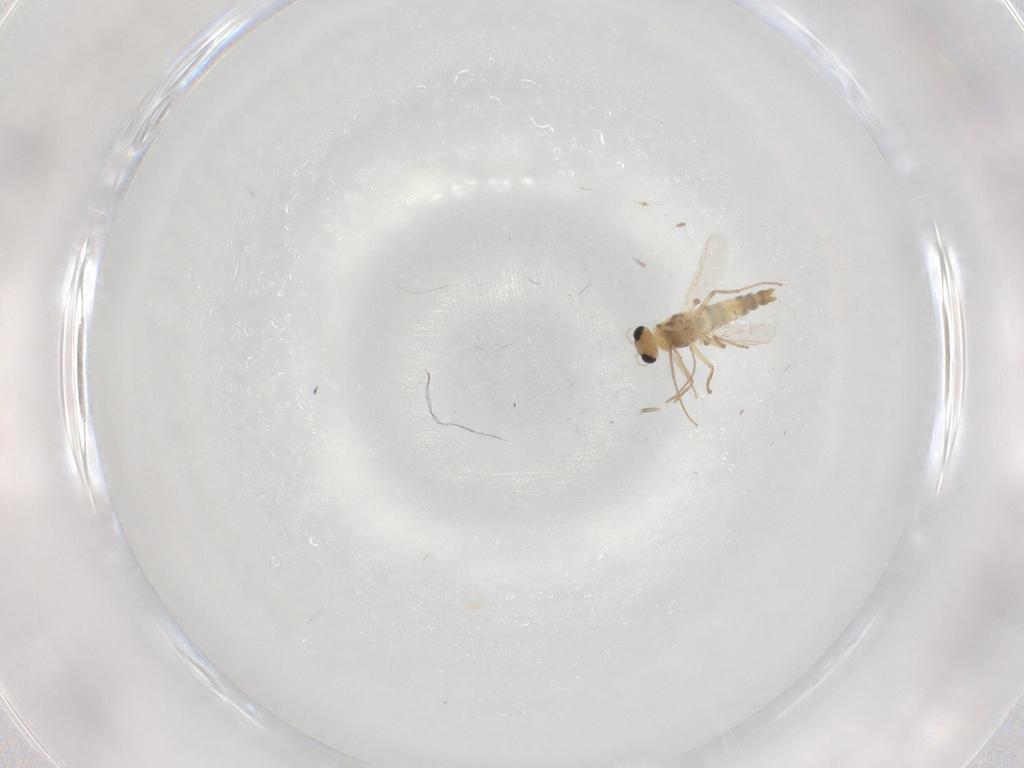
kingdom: Animalia
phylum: Arthropoda
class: Insecta
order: Diptera
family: Chironomidae
